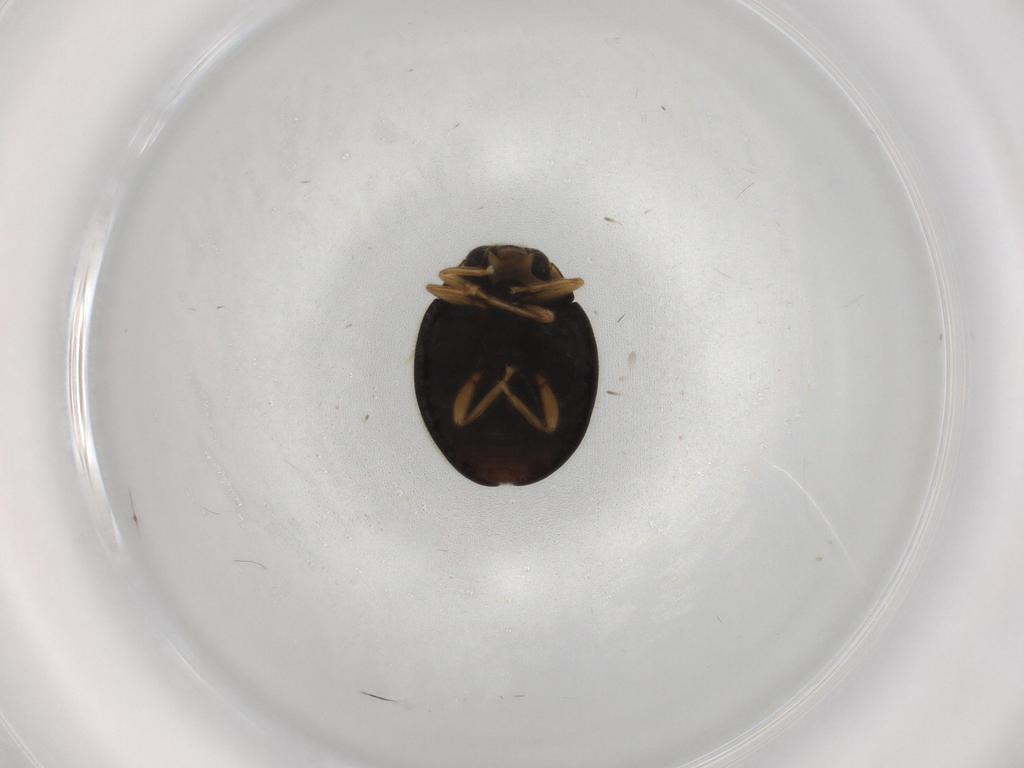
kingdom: Animalia
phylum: Arthropoda
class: Insecta
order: Coleoptera
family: Coccinellidae
